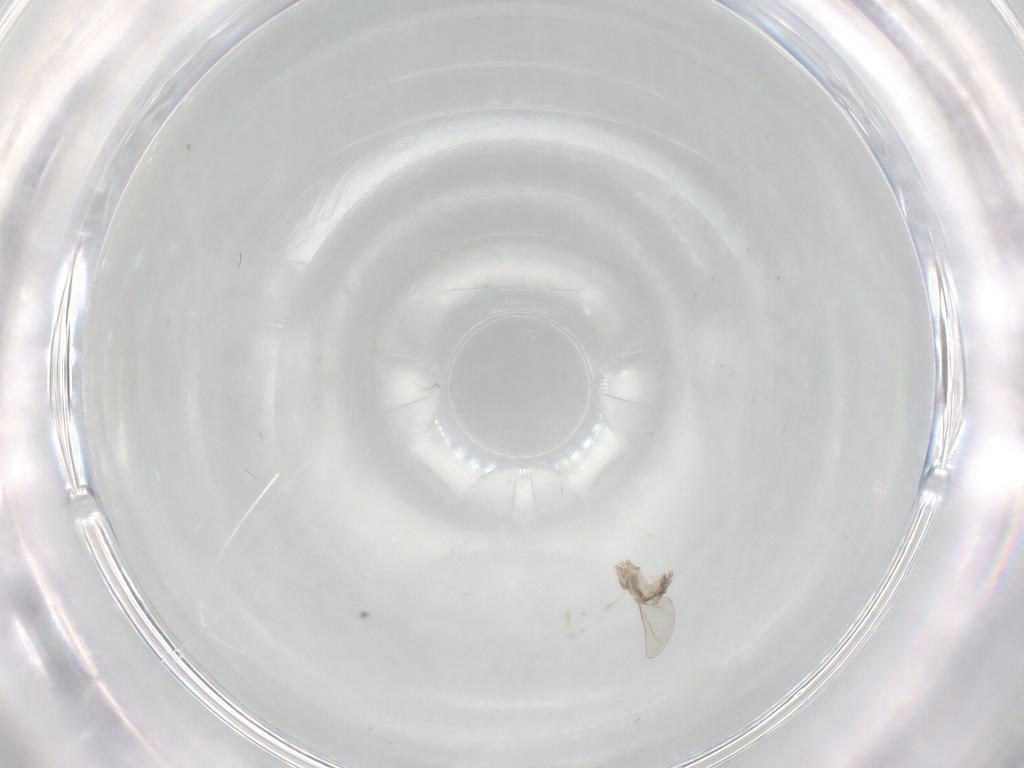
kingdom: Animalia
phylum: Arthropoda
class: Insecta
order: Diptera
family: Cecidomyiidae
